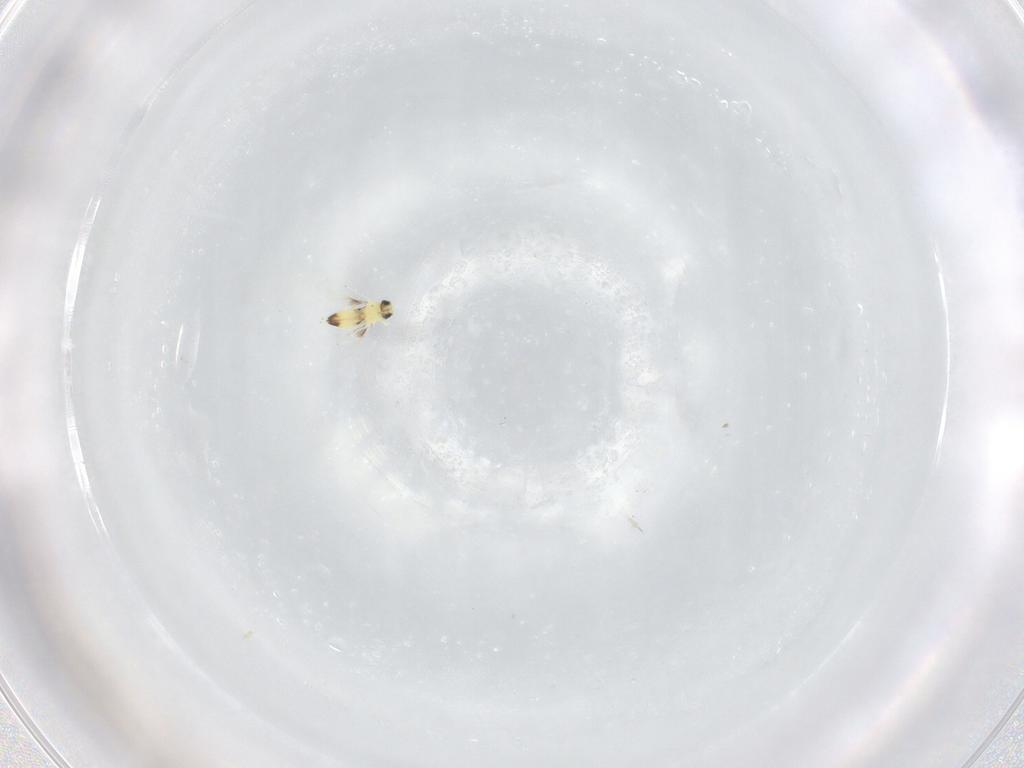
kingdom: Animalia
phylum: Arthropoda
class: Insecta
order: Hymenoptera
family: Trichogrammatidae
